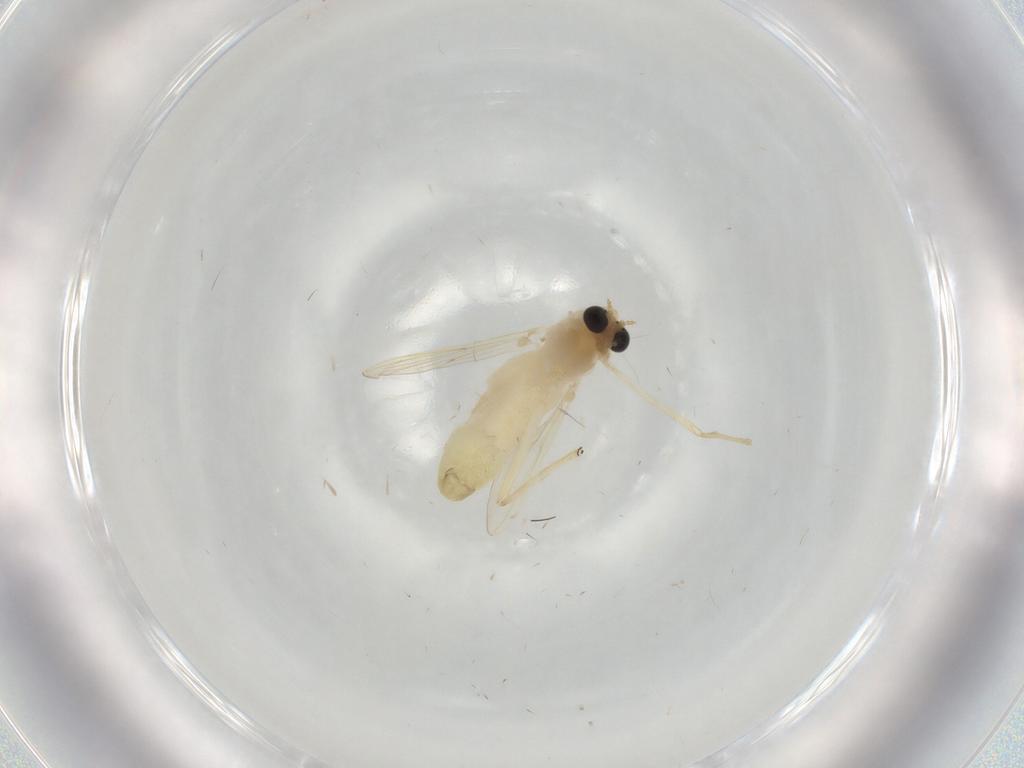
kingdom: Animalia
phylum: Arthropoda
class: Insecta
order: Diptera
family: Chironomidae
